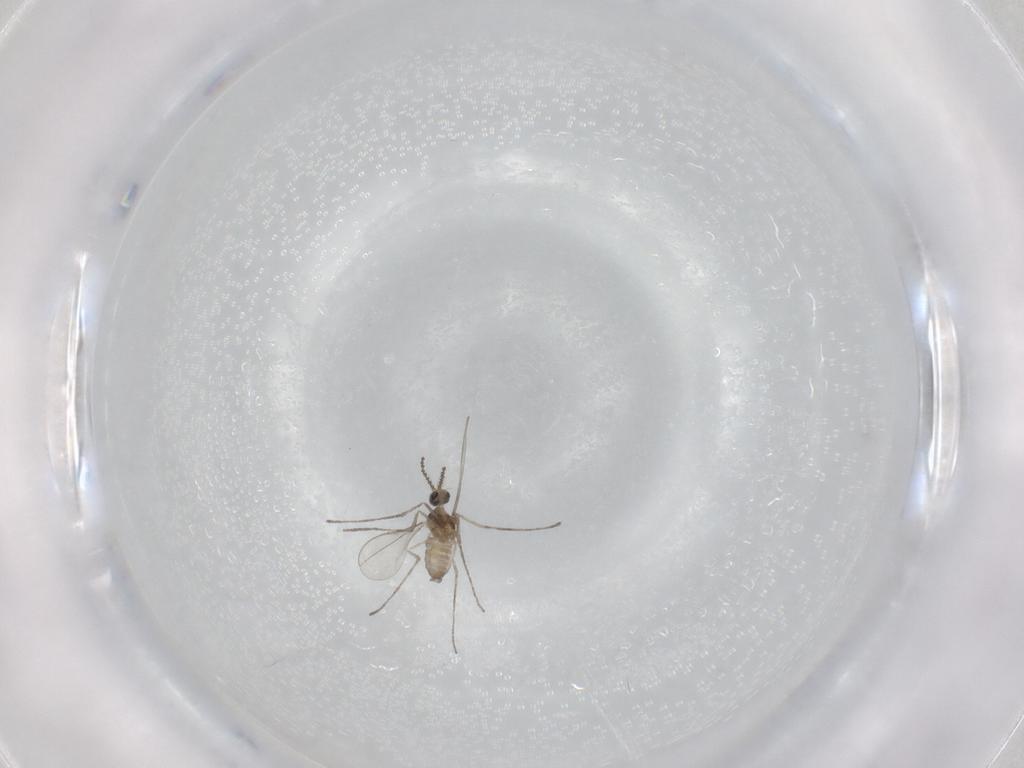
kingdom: Animalia
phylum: Arthropoda
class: Insecta
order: Diptera
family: Cecidomyiidae
